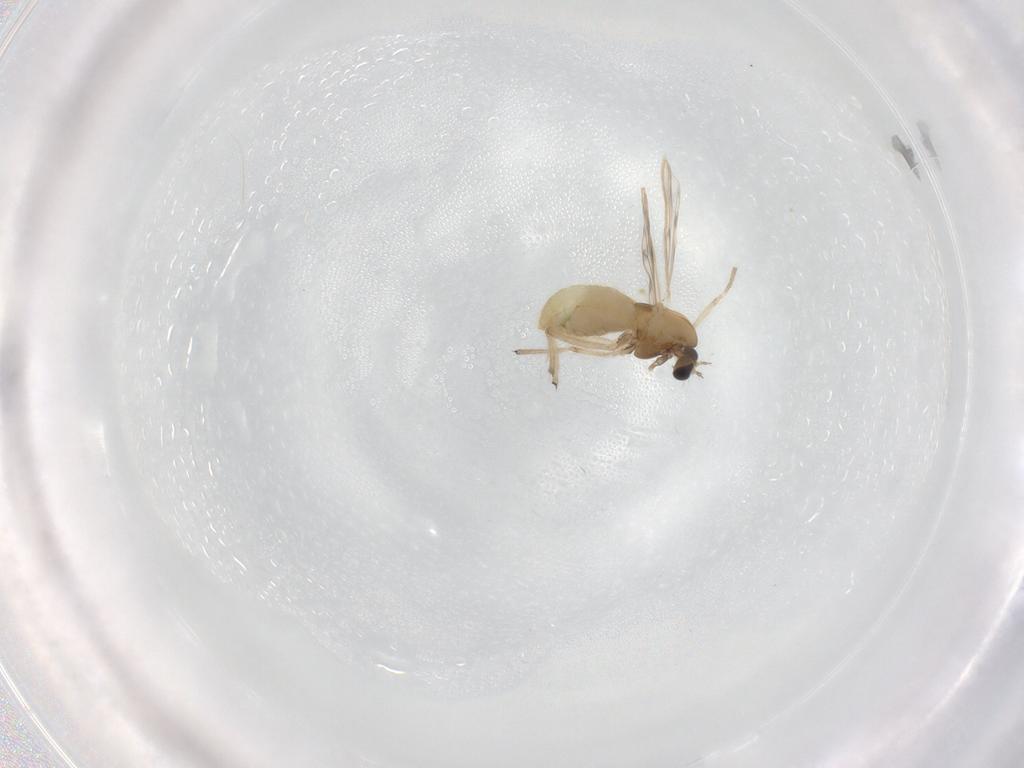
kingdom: Animalia
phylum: Arthropoda
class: Insecta
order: Diptera
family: Chironomidae
